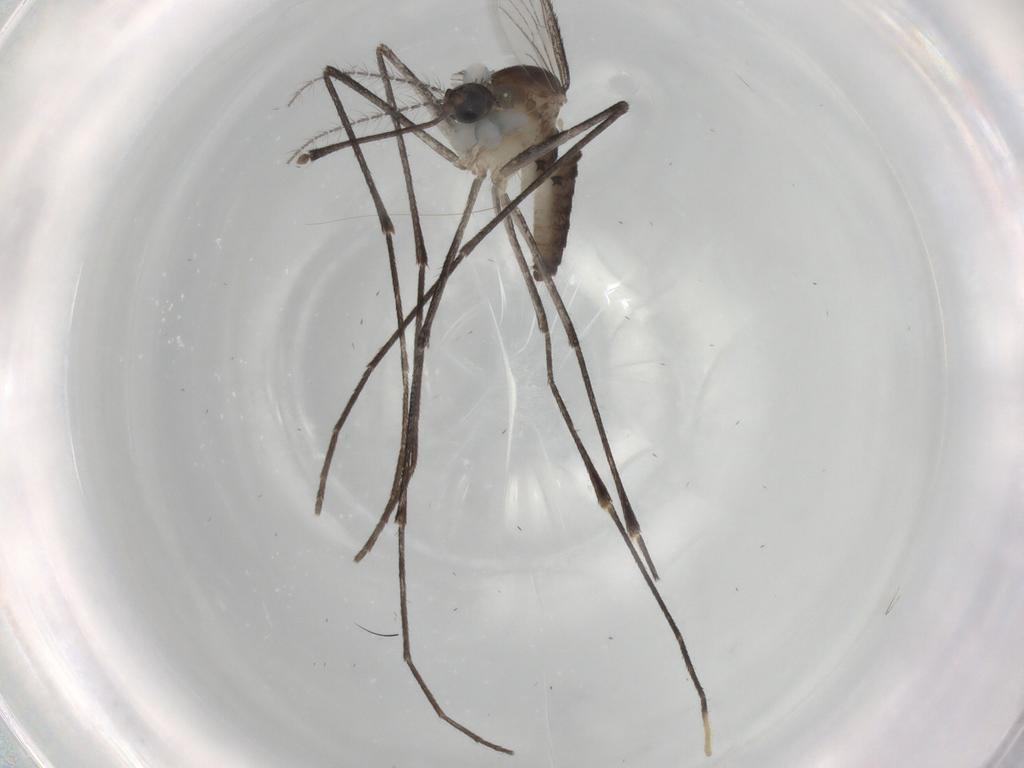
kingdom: Animalia
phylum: Arthropoda
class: Insecta
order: Diptera
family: Culicidae
